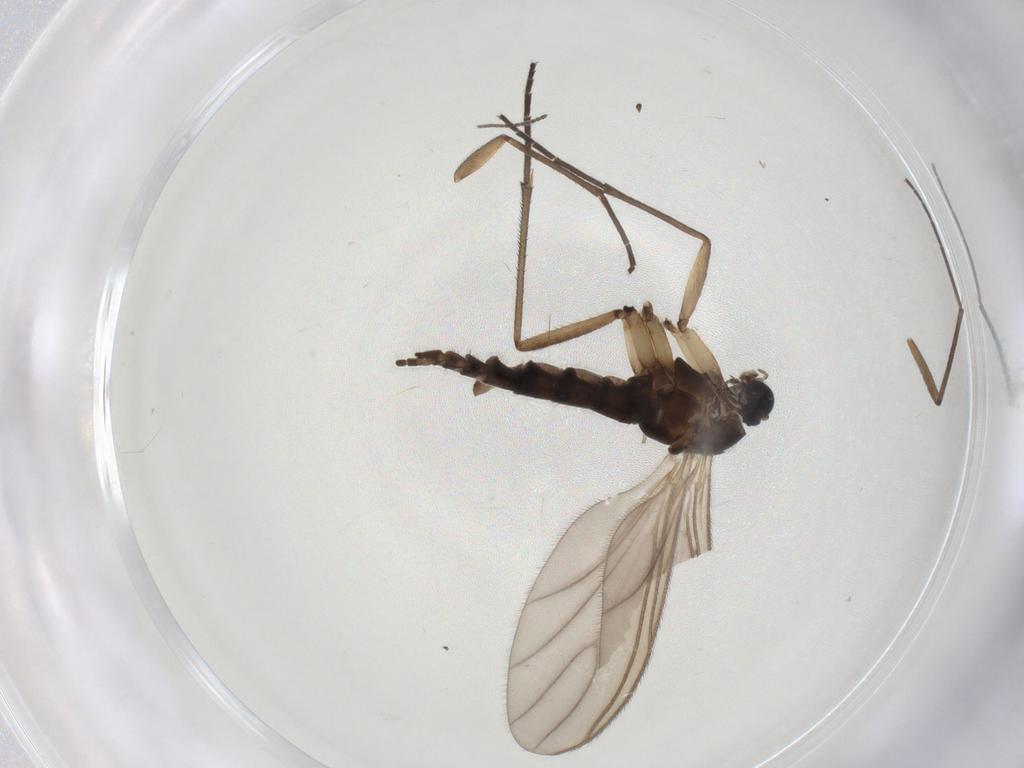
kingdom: Animalia
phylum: Arthropoda
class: Insecta
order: Diptera
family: Sciaridae
